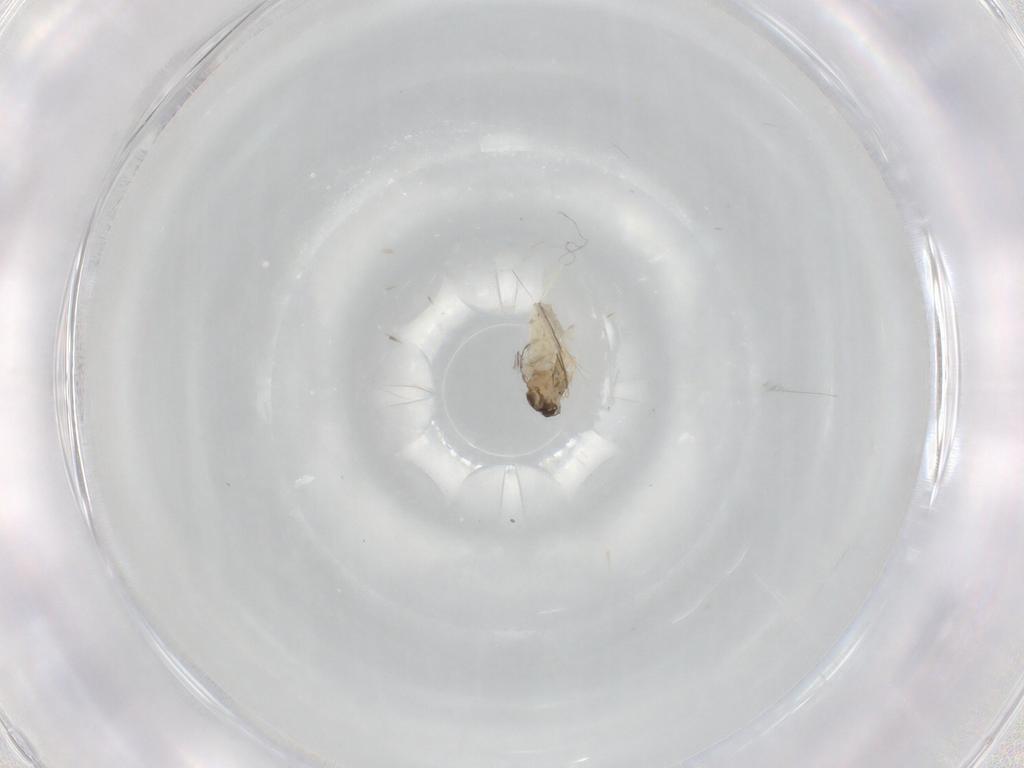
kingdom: Animalia
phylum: Arthropoda
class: Insecta
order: Diptera
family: Cecidomyiidae
